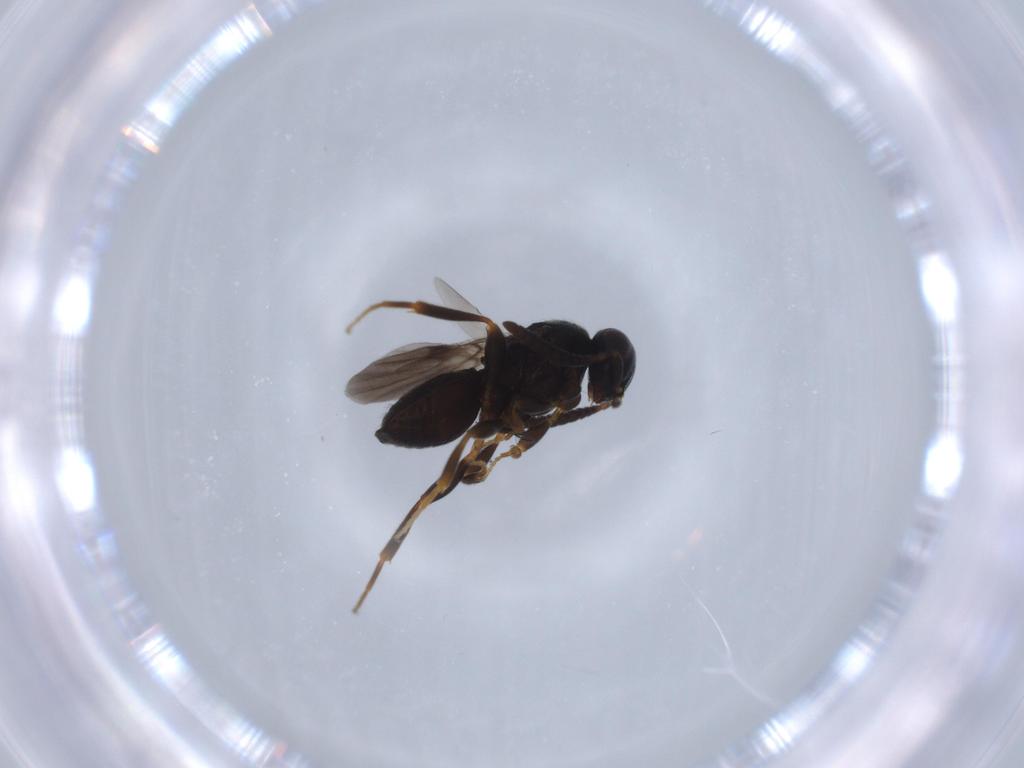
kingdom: Animalia
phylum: Arthropoda
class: Insecta
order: Hymenoptera
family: Platygastridae
